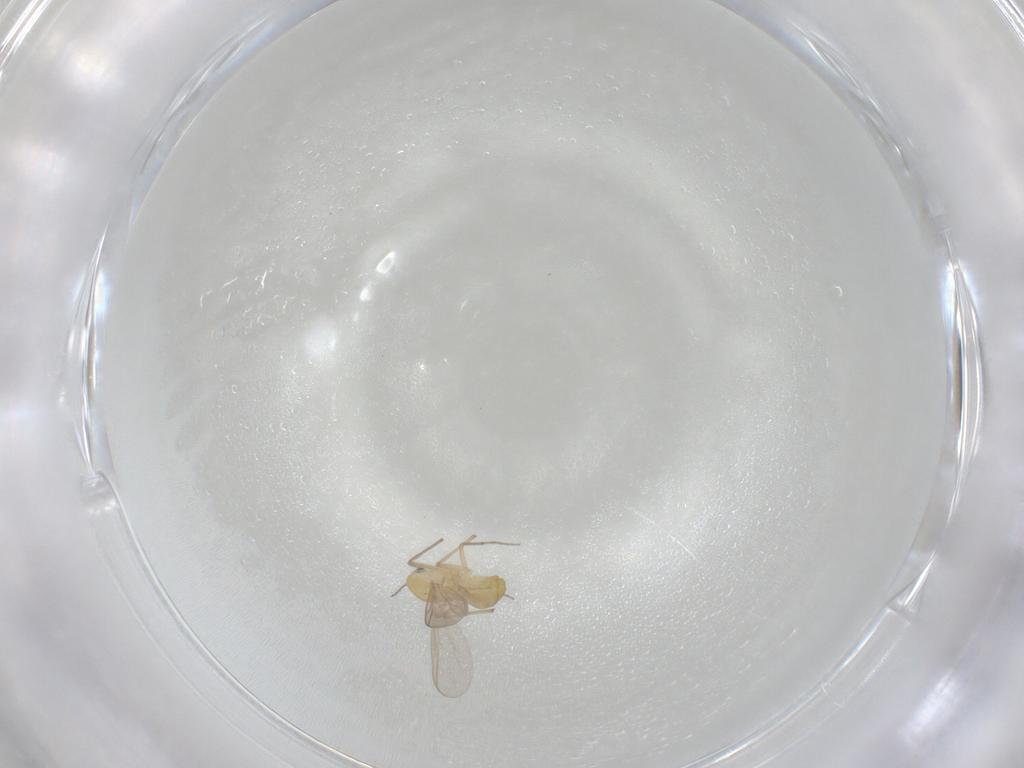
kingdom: Animalia
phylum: Arthropoda
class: Insecta
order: Diptera
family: Chironomidae
